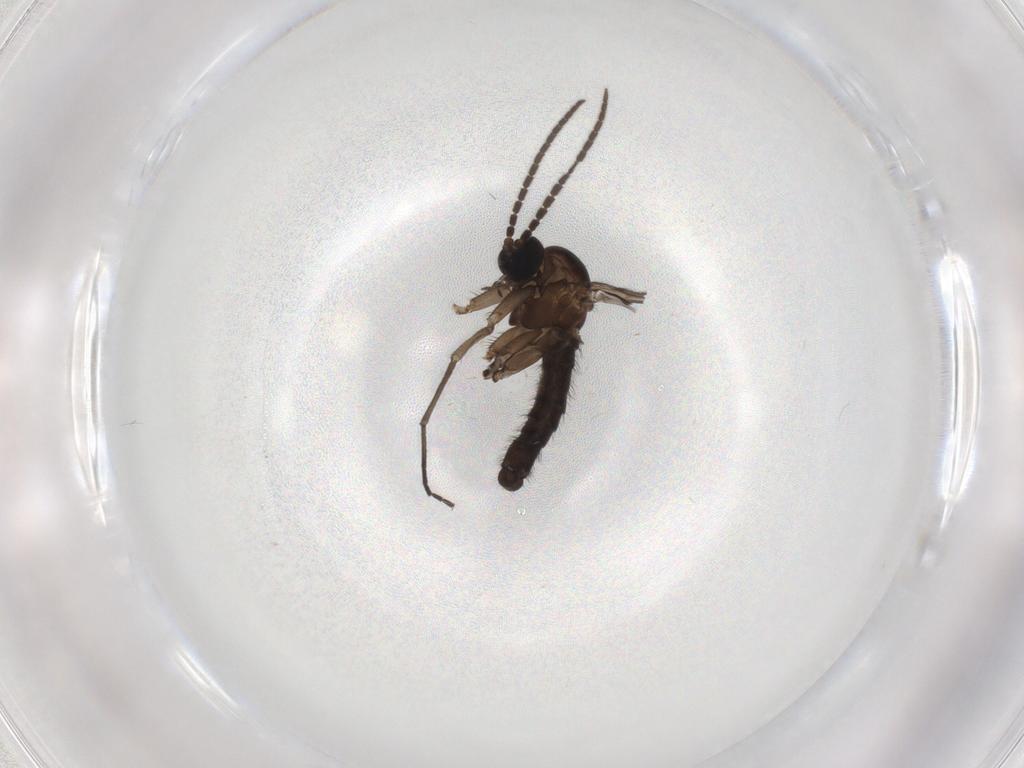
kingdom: Animalia
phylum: Arthropoda
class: Insecta
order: Diptera
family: Sciaridae
